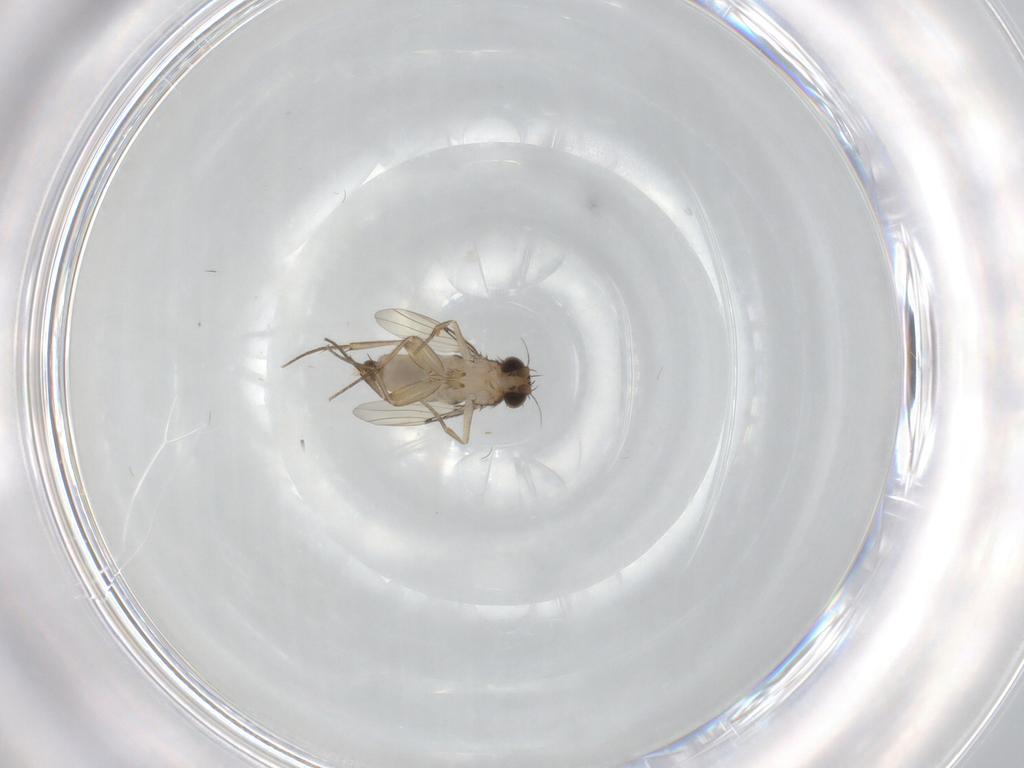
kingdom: Animalia
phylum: Arthropoda
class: Insecta
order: Diptera
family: Phoridae
